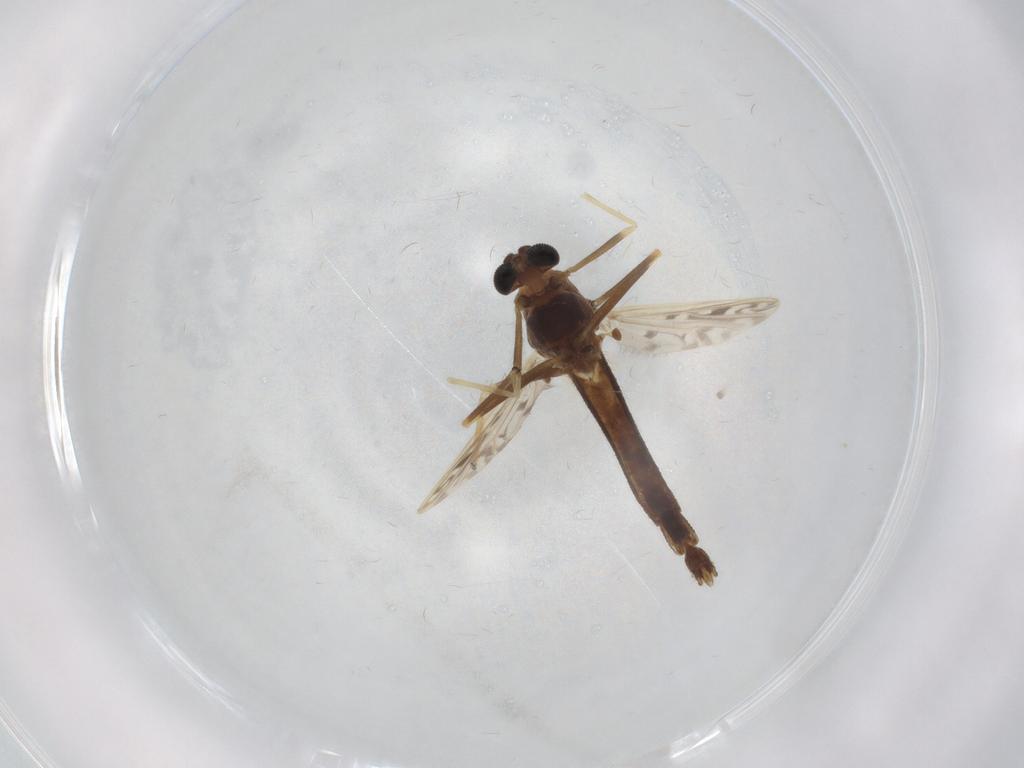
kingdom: Animalia
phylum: Arthropoda
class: Insecta
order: Diptera
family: Chironomidae
